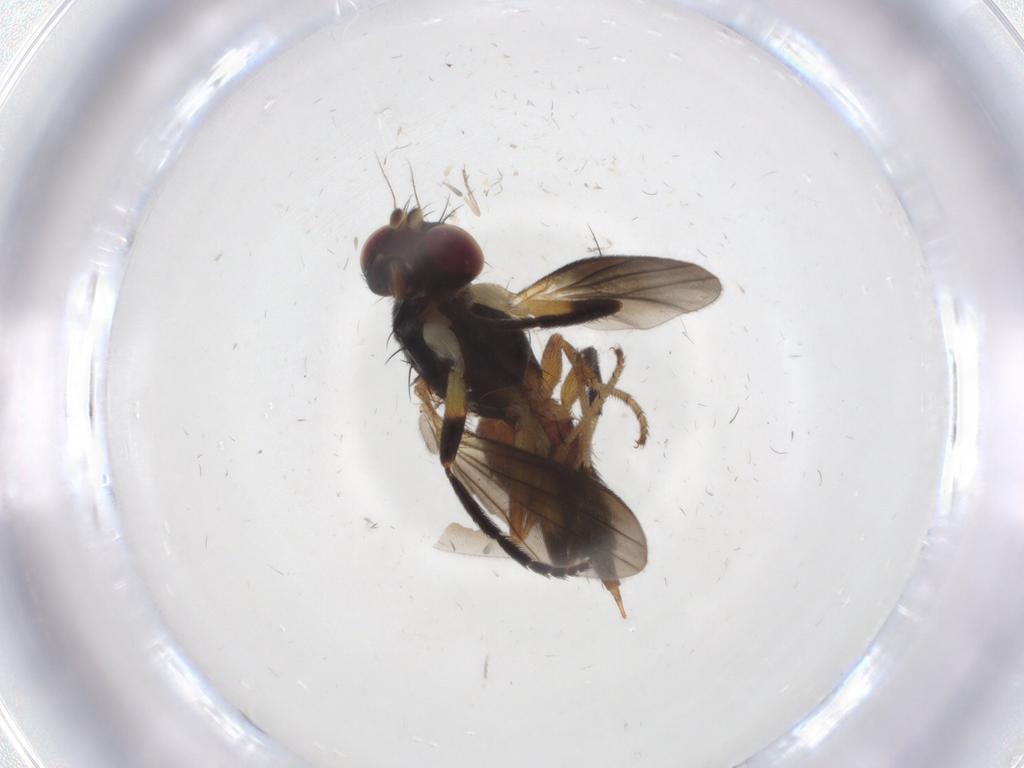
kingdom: Animalia
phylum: Arthropoda
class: Insecta
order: Diptera
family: Clusiidae
